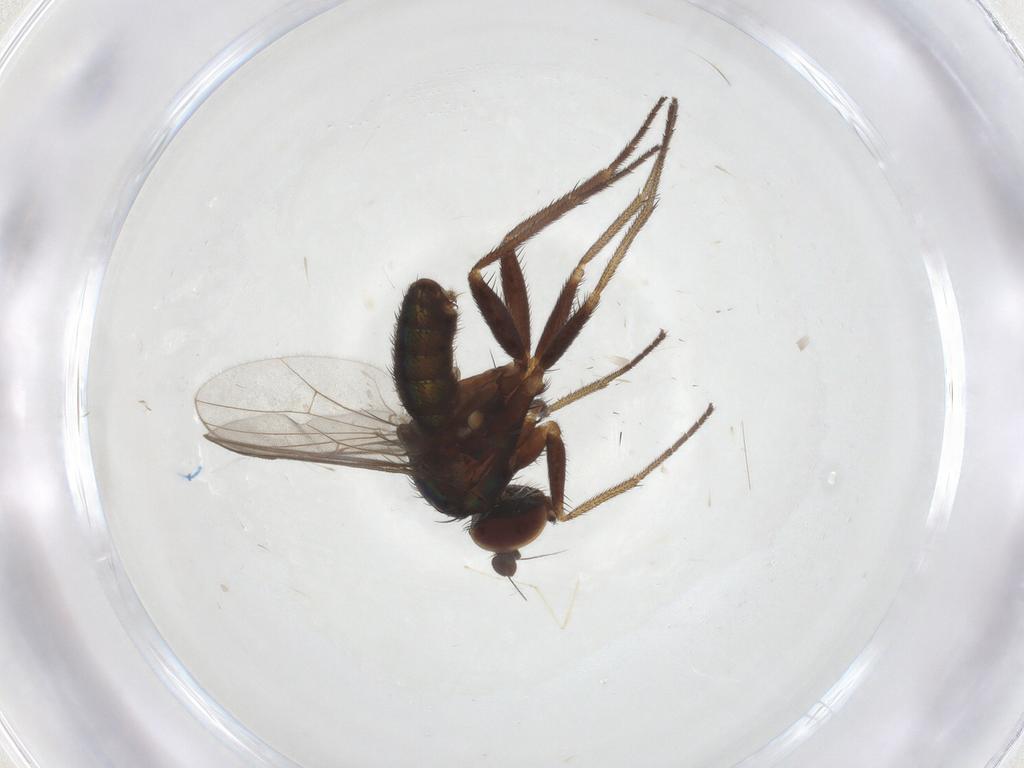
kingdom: Animalia
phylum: Arthropoda
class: Insecta
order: Diptera
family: Cecidomyiidae
